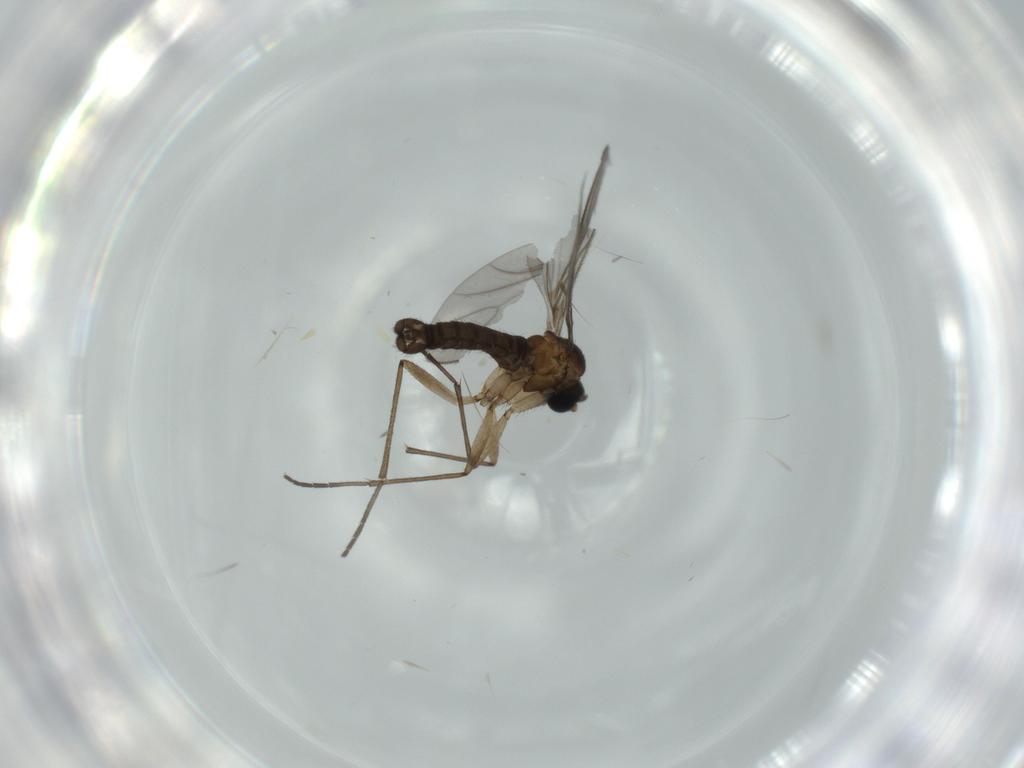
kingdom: Animalia
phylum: Arthropoda
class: Insecta
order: Diptera
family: Sciaridae
